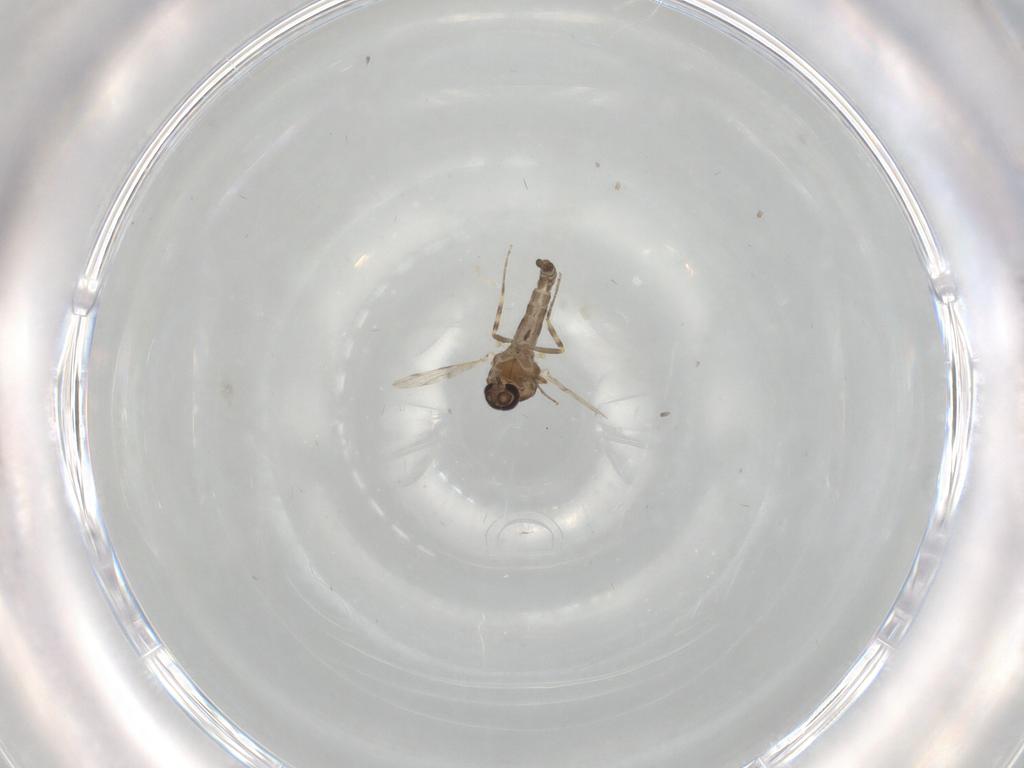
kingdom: Animalia
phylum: Arthropoda
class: Insecta
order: Diptera
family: Ceratopogonidae
